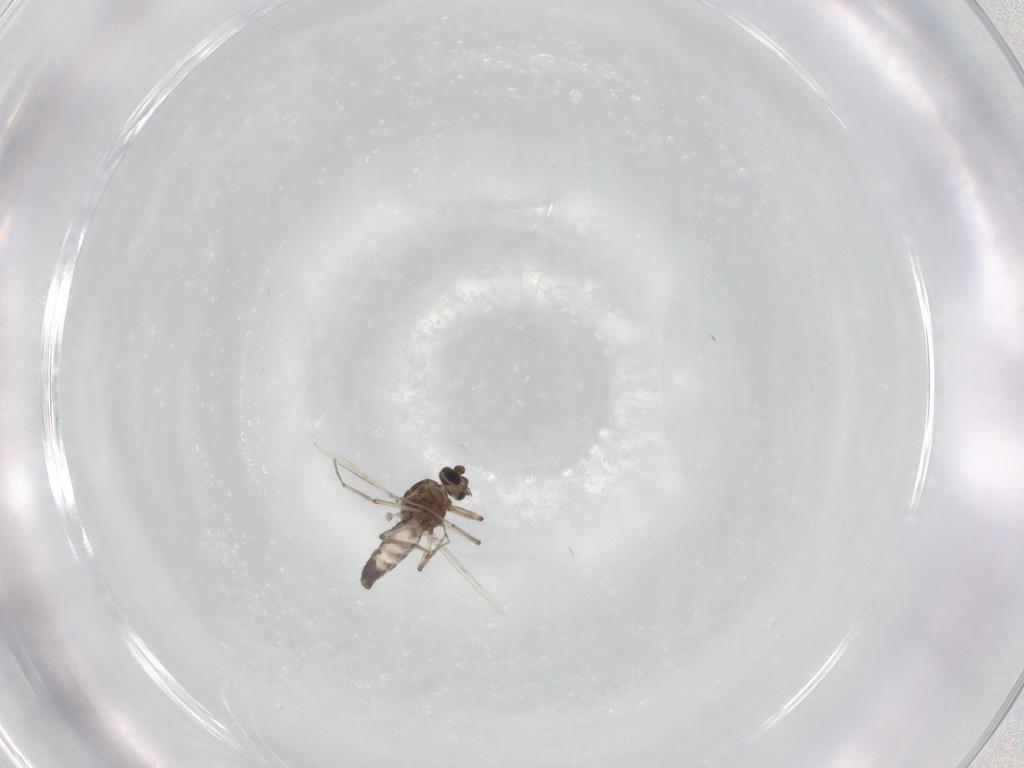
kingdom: Animalia
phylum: Arthropoda
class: Insecta
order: Diptera
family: Ceratopogonidae
